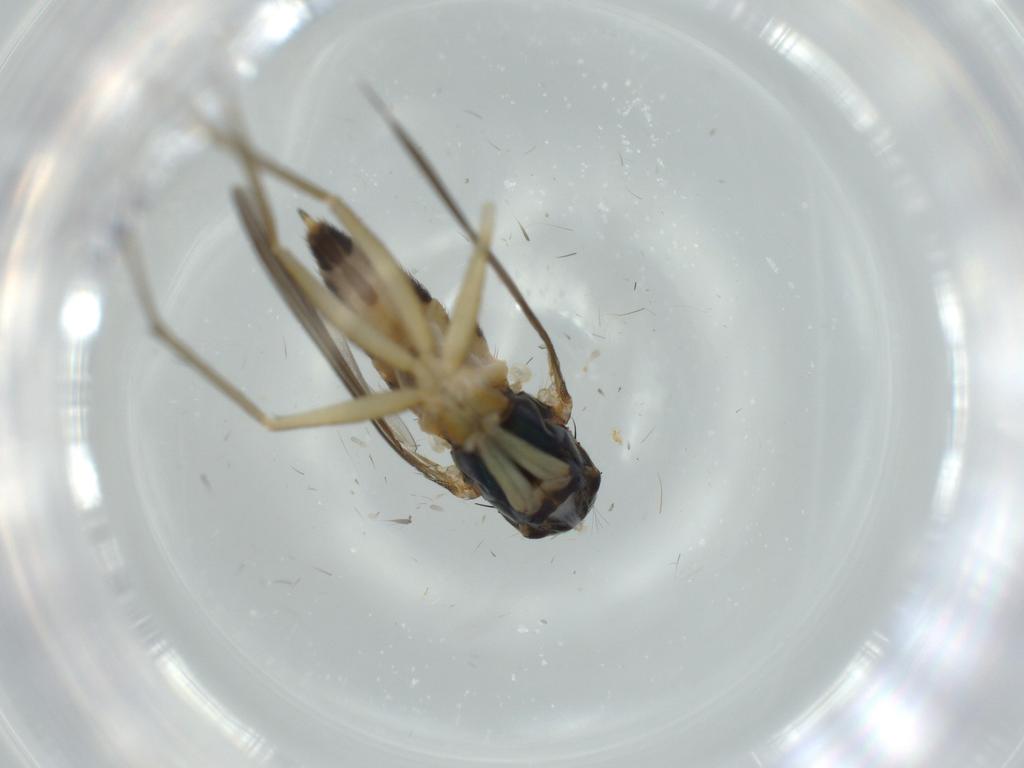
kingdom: Animalia
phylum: Arthropoda
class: Insecta
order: Diptera
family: Dolichopodidae
